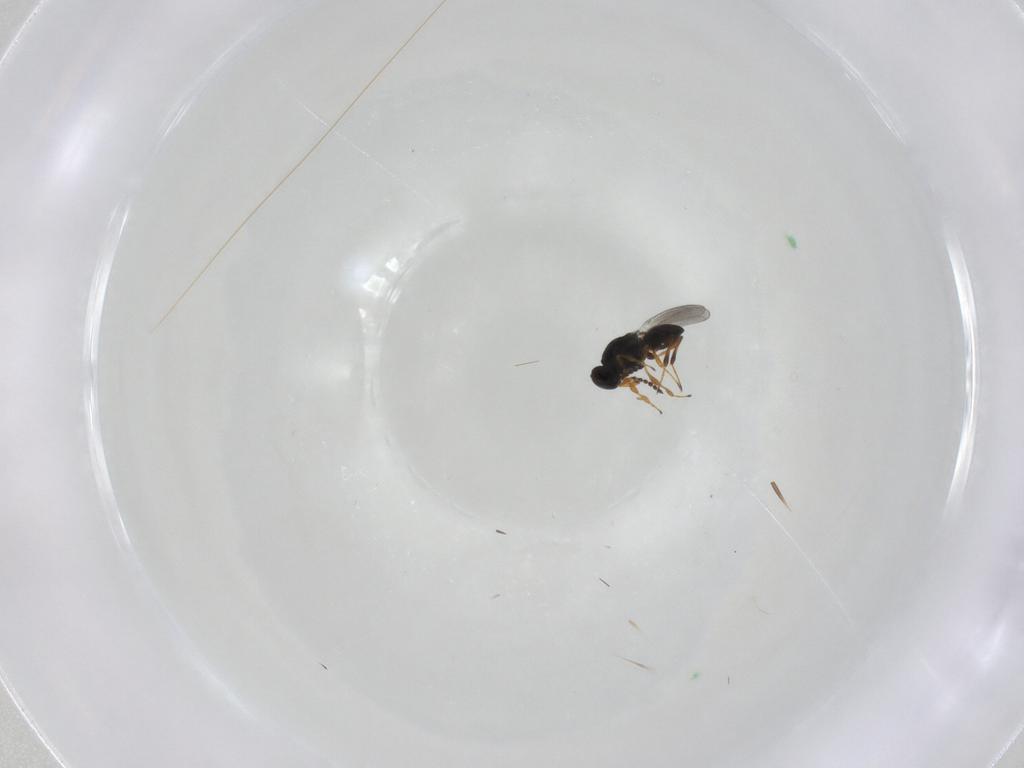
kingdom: Animalia
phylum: Arthropoda
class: Insecta
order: Hymenoptera
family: Platygastridae
